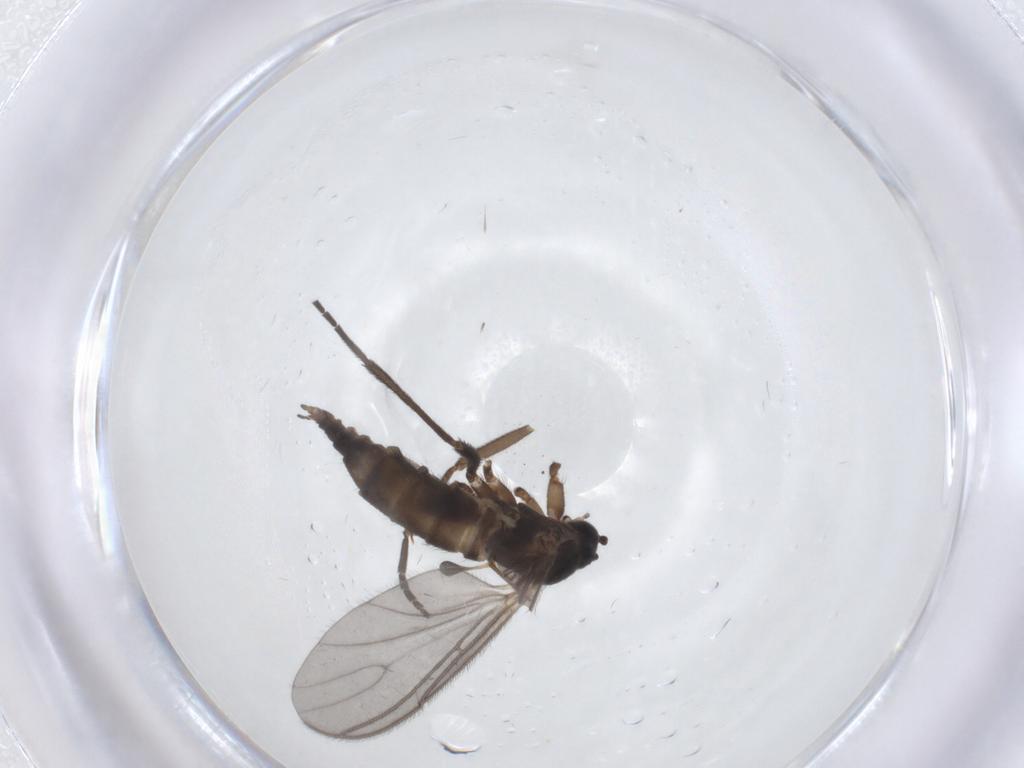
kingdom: Animalia
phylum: Arthropoda
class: Insecta
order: Diptera
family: Sciaridae
